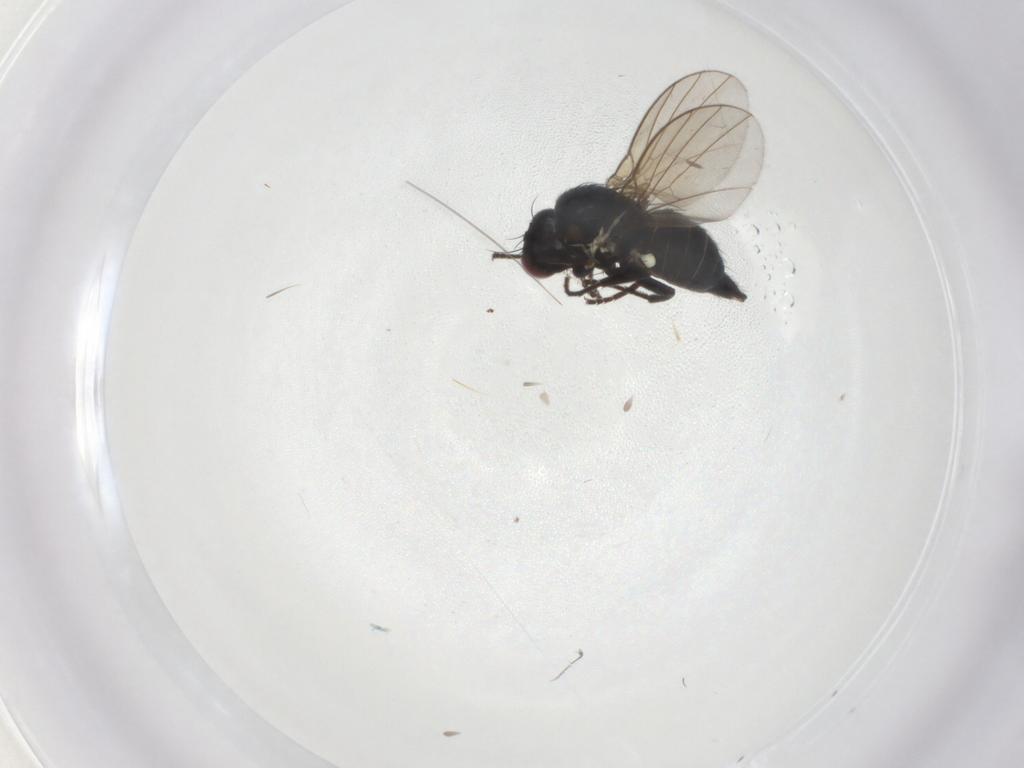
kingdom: Animalia
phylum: Arthropoda
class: Insecta
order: Diptera
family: Agromyzidae
